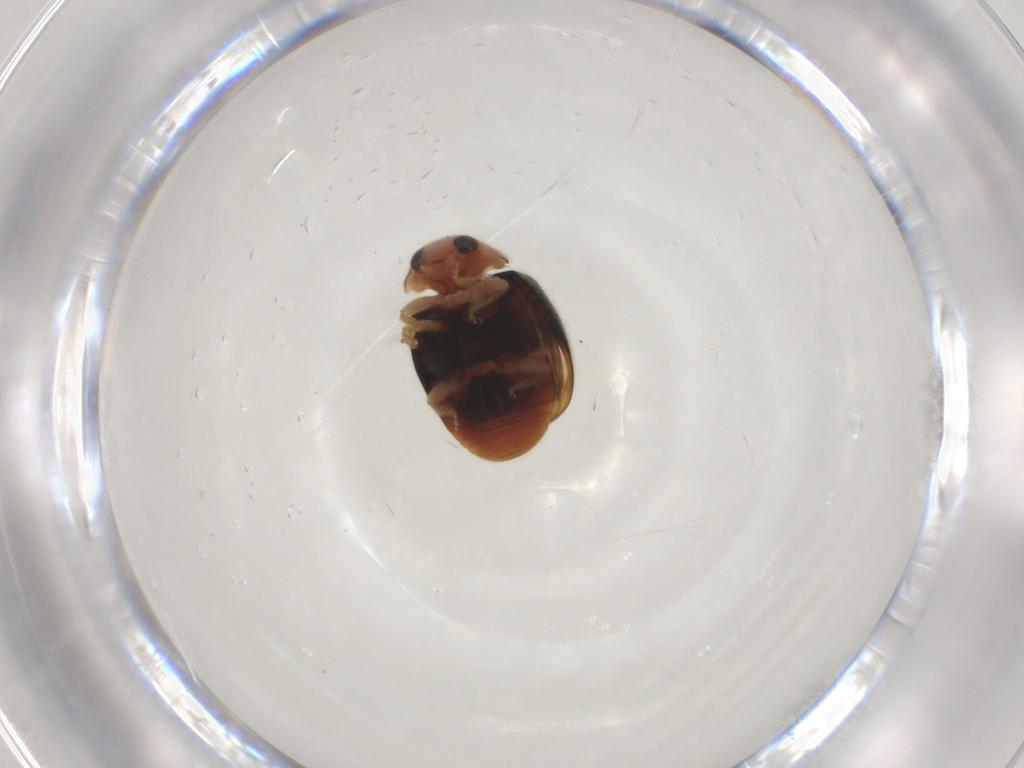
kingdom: Animalia
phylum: Arthropoda
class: Insecta
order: Coleoptera
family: Coccinellidae
